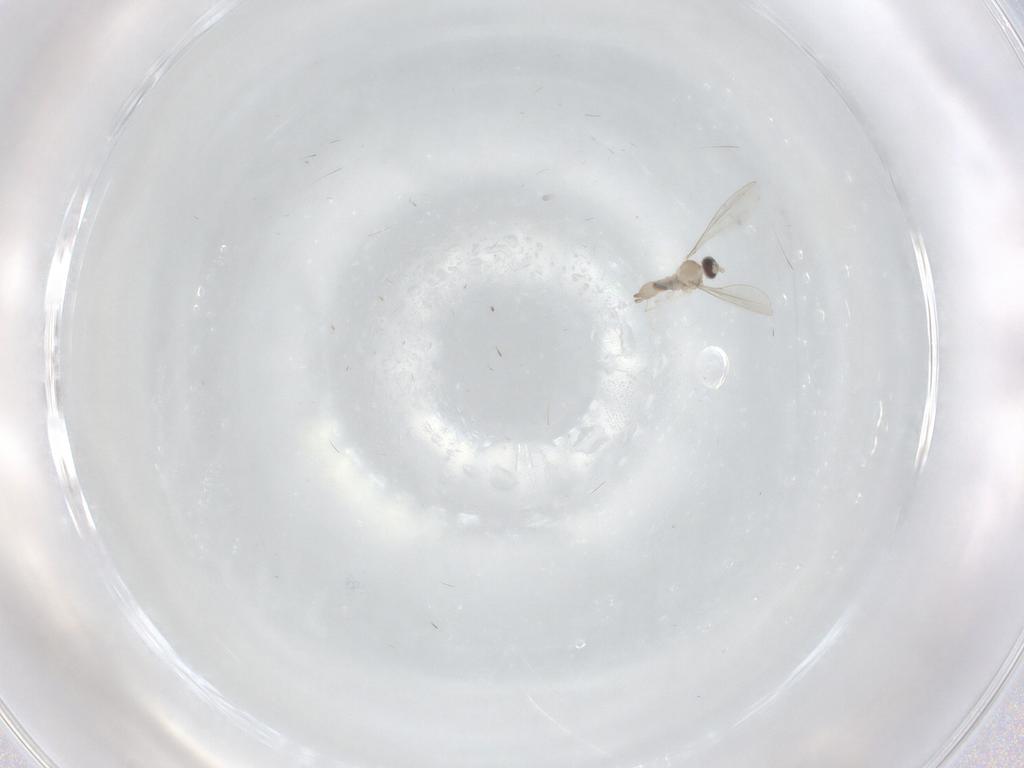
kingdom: Animalia
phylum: Arthropoda
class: Insecta
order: Diptera
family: Cecidomyiidae
